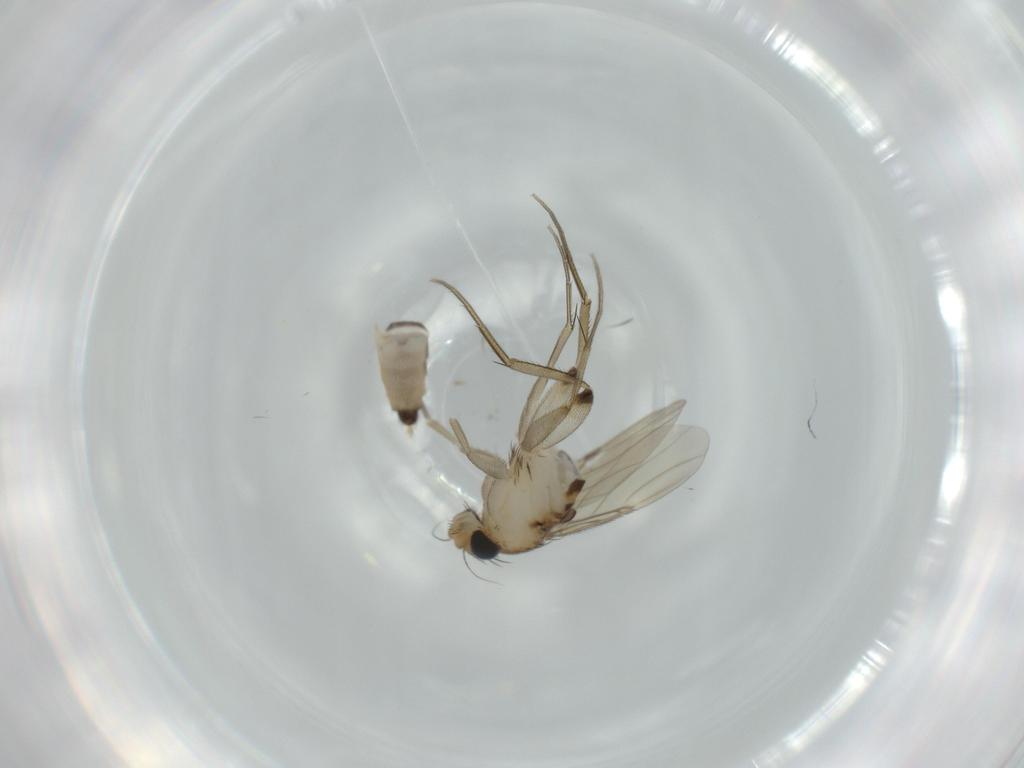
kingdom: Animalia
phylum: Arthropoda
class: Insecta
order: Diptera
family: Phoridae
